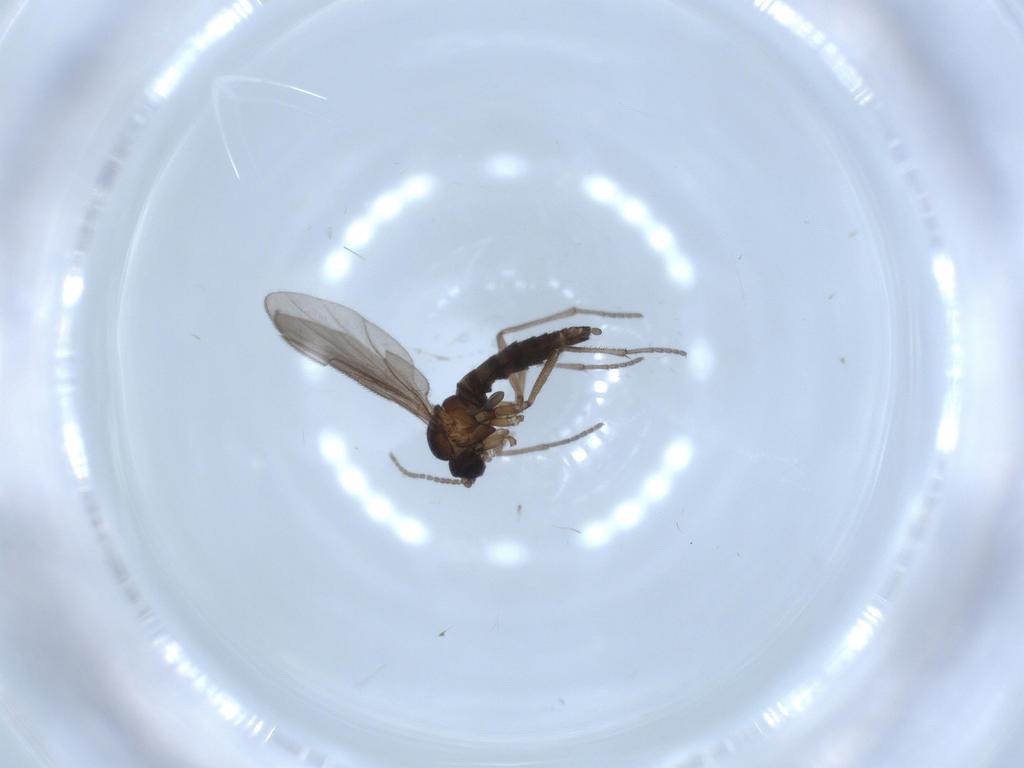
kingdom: Animalia
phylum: Arthropoda
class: Insecta
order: Diptera
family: Sciaridae
